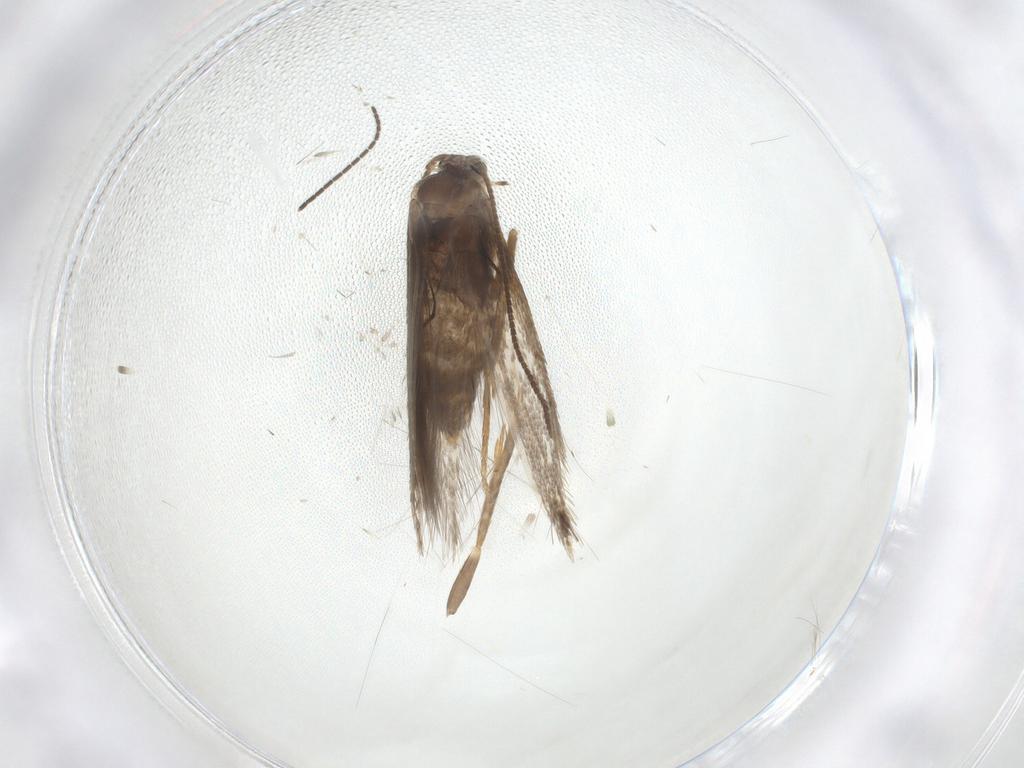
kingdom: Animalia
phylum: Arthropoda
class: Insecta
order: Lepidoptera
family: Nepticulidae
